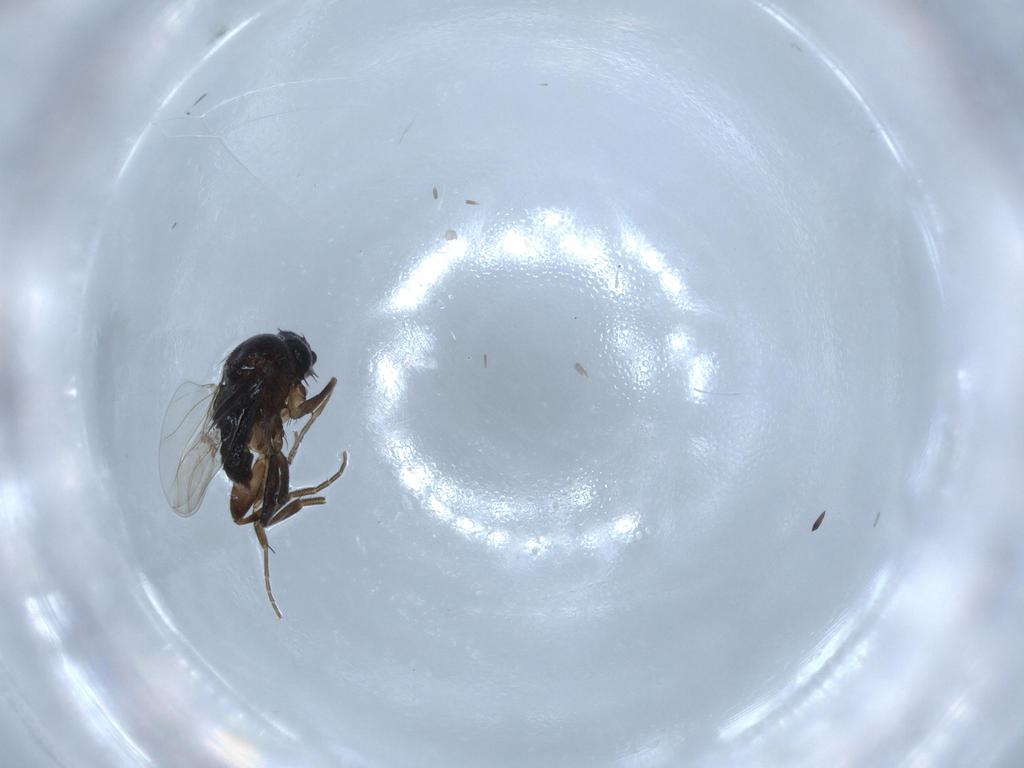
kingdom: Animalia
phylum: Arthropoda
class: Insecta
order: Diptera
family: Phoridae
